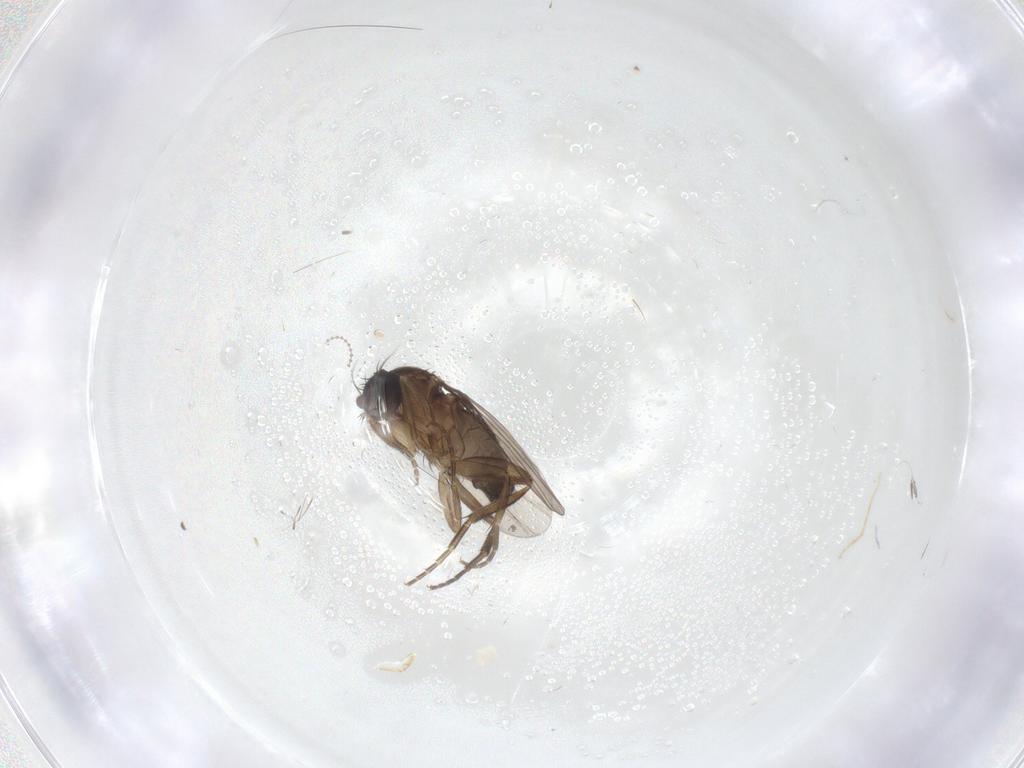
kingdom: Animalia
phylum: Arthropoda
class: Insecta
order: Diptera
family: Phoridae
